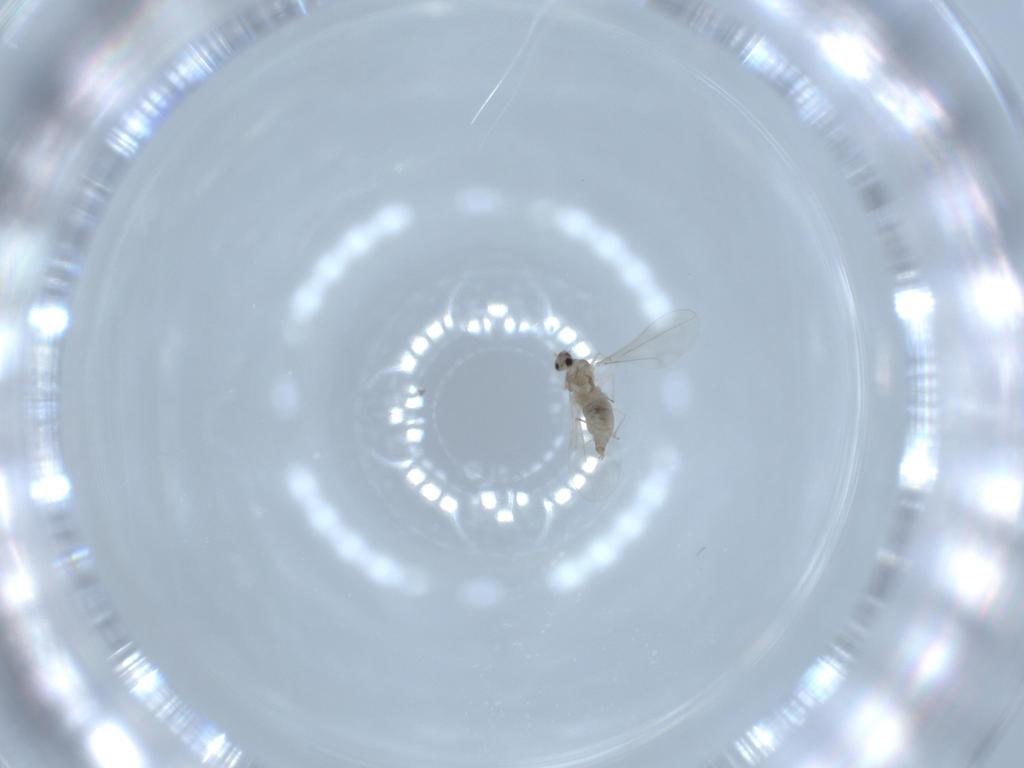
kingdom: Animalia
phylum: Arthropoda
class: Insecta
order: Diptera
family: Cecidomyiidae
